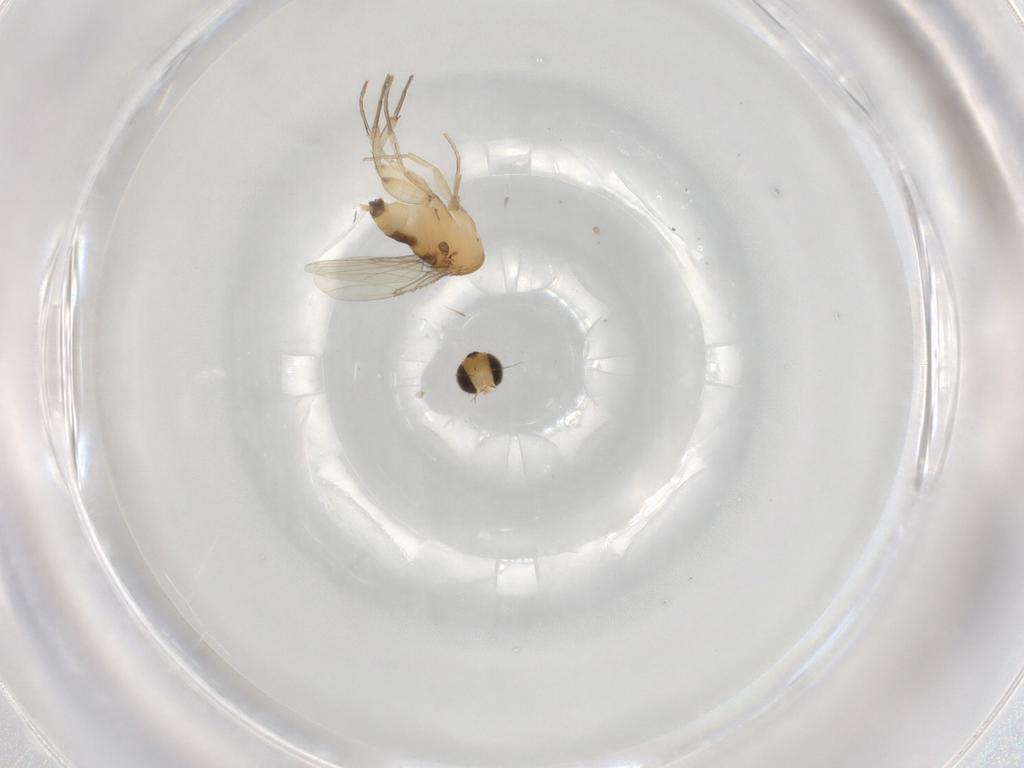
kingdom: Animalia
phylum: Arthropoda
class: Insecta
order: Diptera
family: Phoridae
